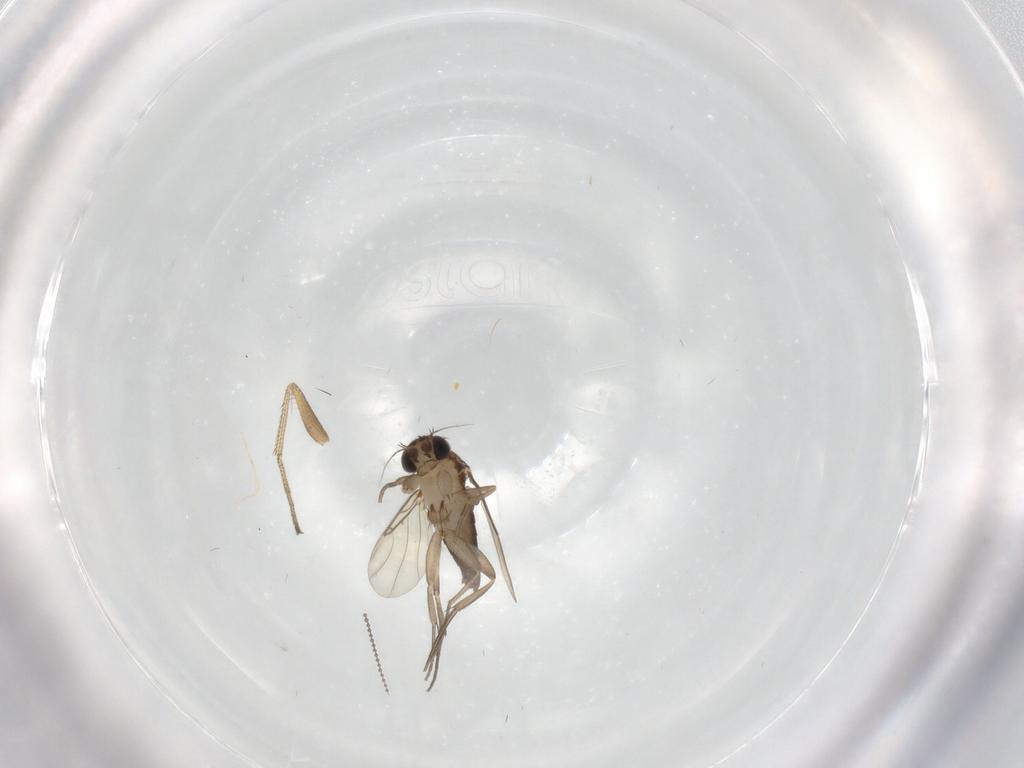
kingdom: Animalia
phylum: Arthropoda
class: Insecta
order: Diptera
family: Phoridae
